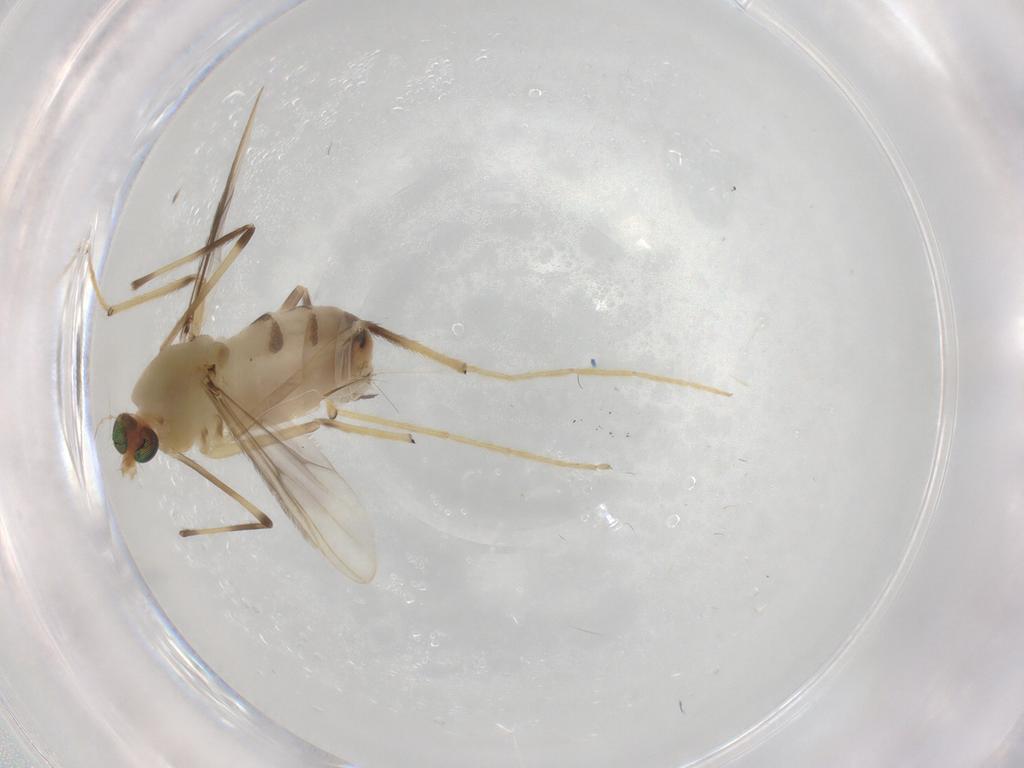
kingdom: Animalia
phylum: Arthropoda
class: Insecta
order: Diptera
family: Chironomidae
